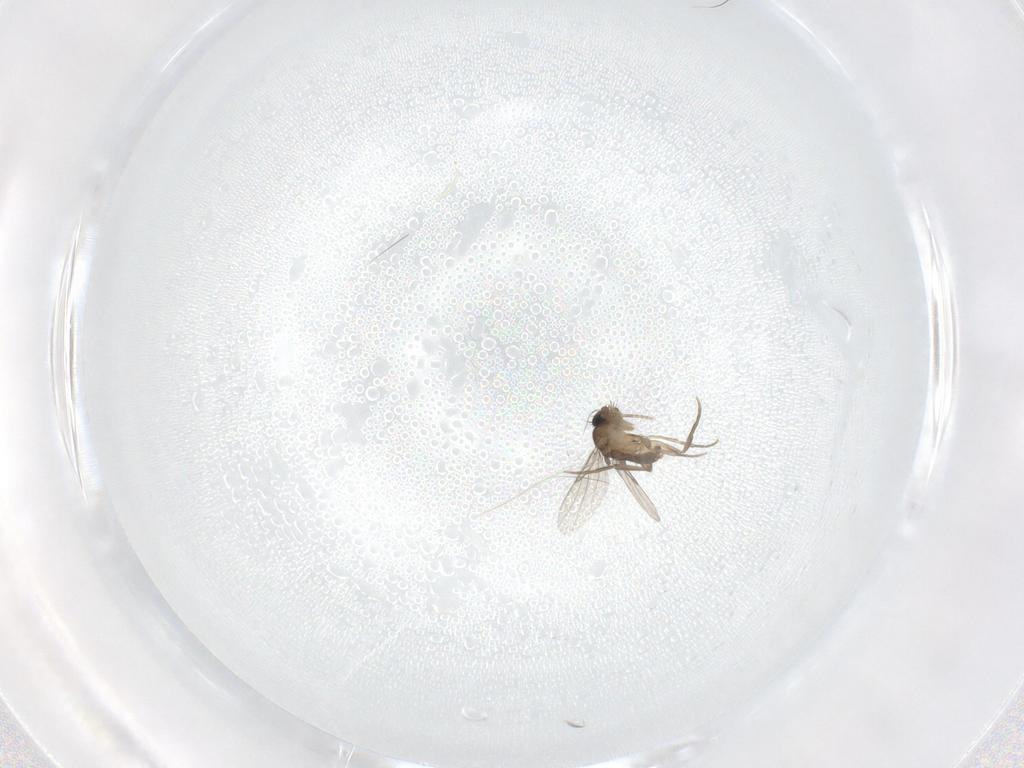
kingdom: Animalia
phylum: Arthropoda
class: Insecta
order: Diptera
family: Phoridae
